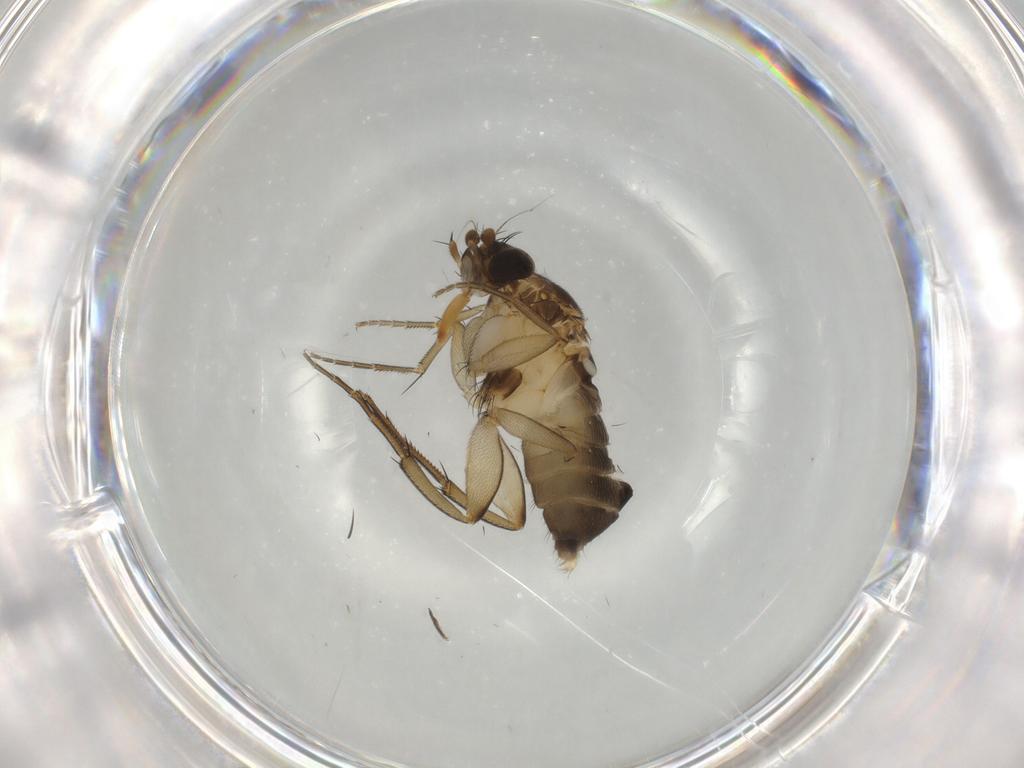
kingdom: Animalia
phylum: Arthropoda
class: Insecta
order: Diptera
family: Phoridae
